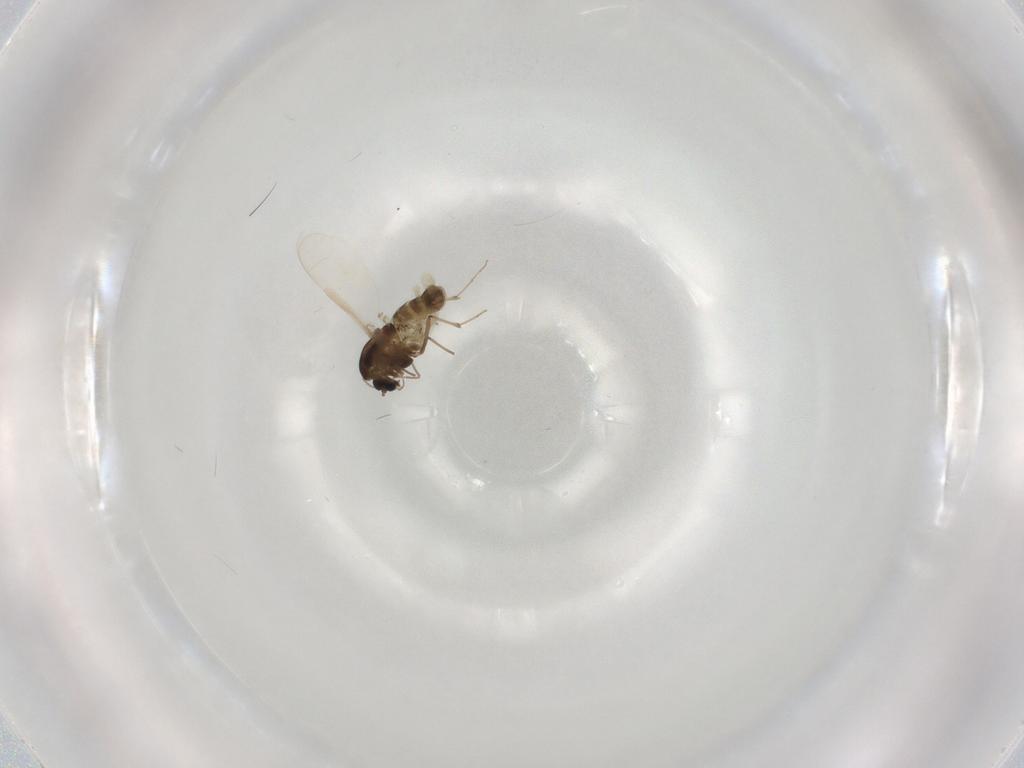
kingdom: Animalia
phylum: Arthropoda
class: Insecta
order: Diptera
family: Chironomidae
